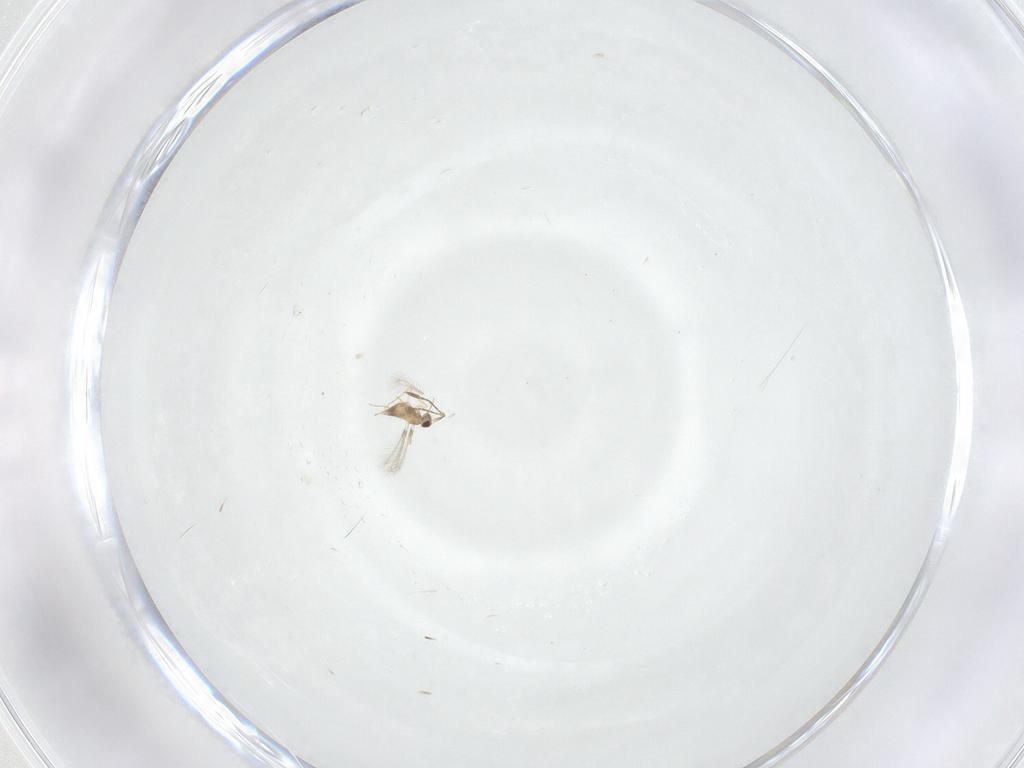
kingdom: Animalia
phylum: Arthropoda
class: Insecta
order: Hymenoptera
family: Mymaridae
